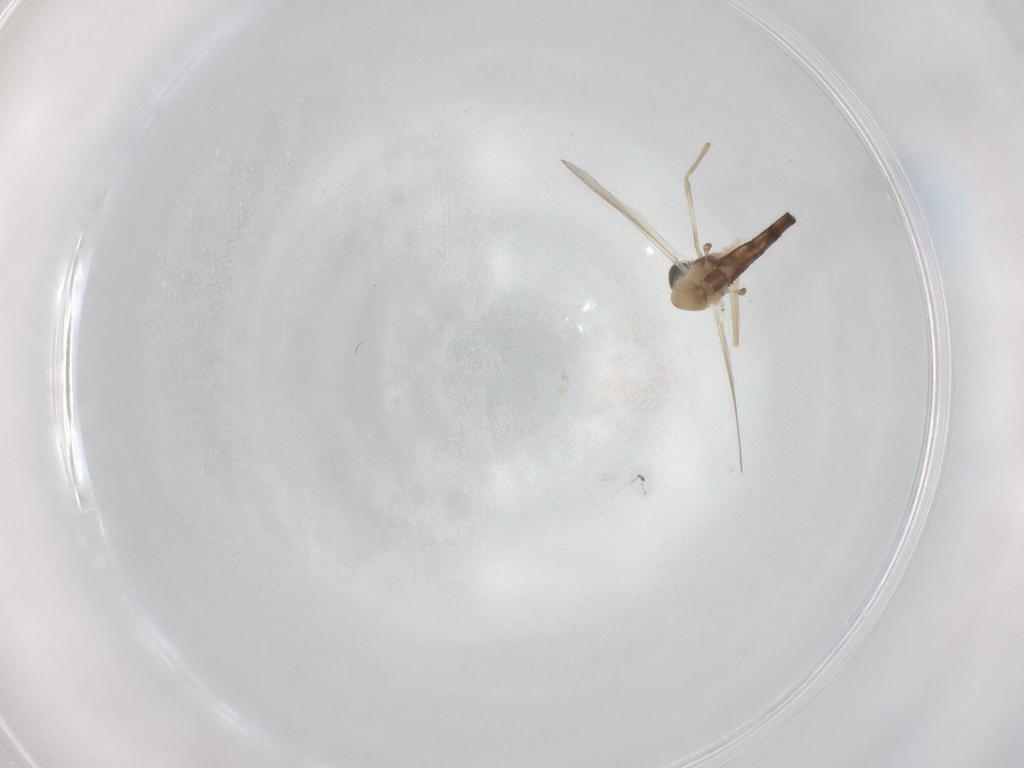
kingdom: Animalia
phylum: Arthropoda
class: Insecta
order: Diptera
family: Chironomidae
